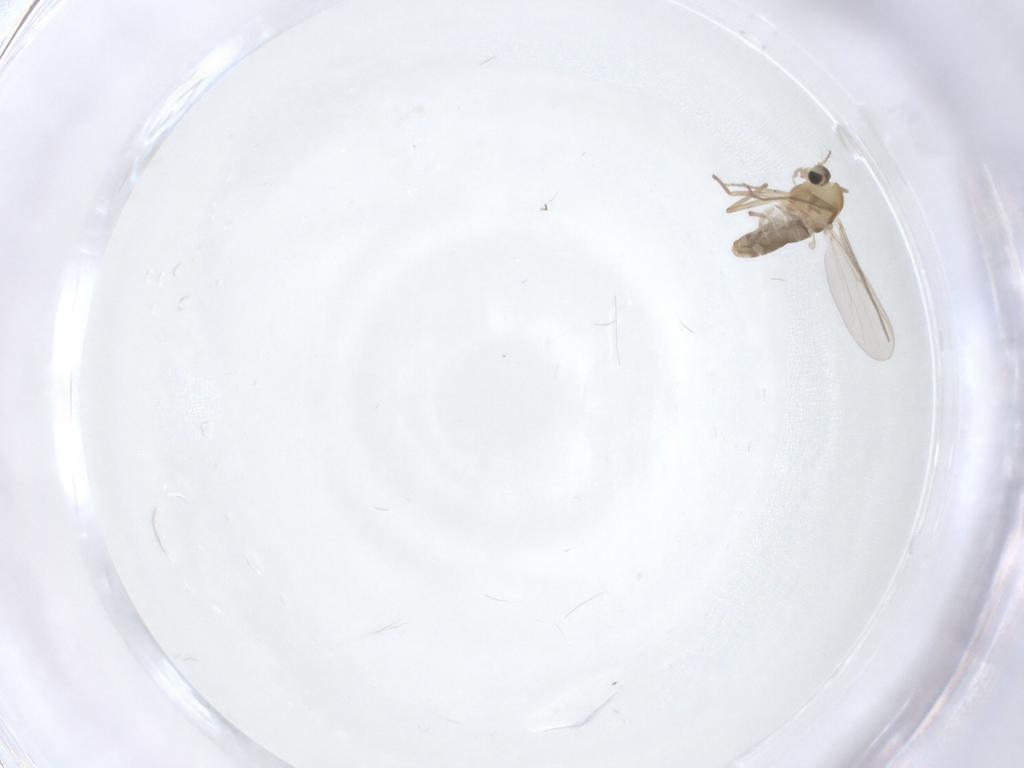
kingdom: Animalia
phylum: Arthropoda
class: Insecta
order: Diptera
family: Chironomidae
